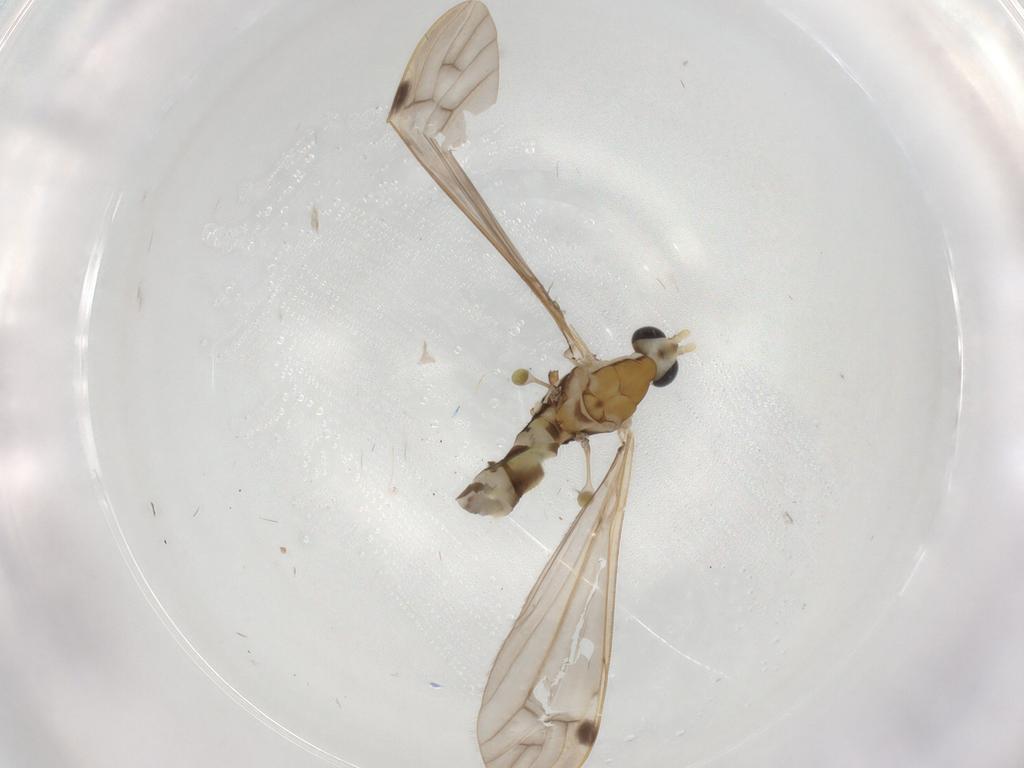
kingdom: Animalia
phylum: Arthropoda
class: Insecta
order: Diptera
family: Chironomidae
